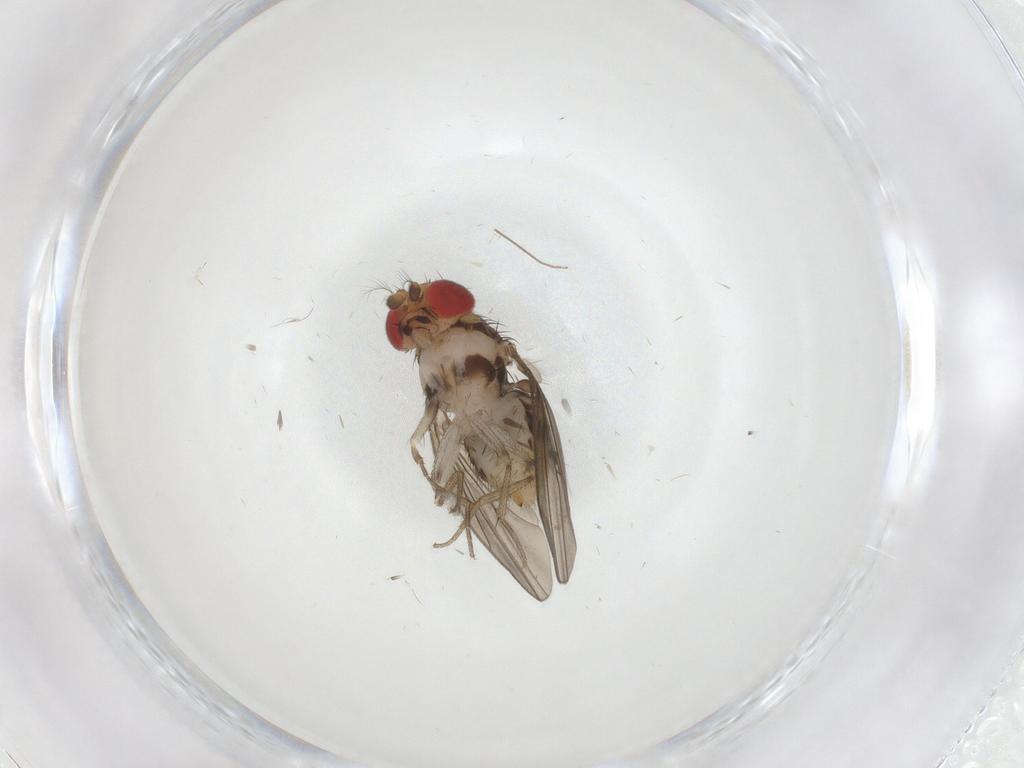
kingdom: Animalia
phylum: Arthropoda
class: Insecta
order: Diptera
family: Drosophilidae
